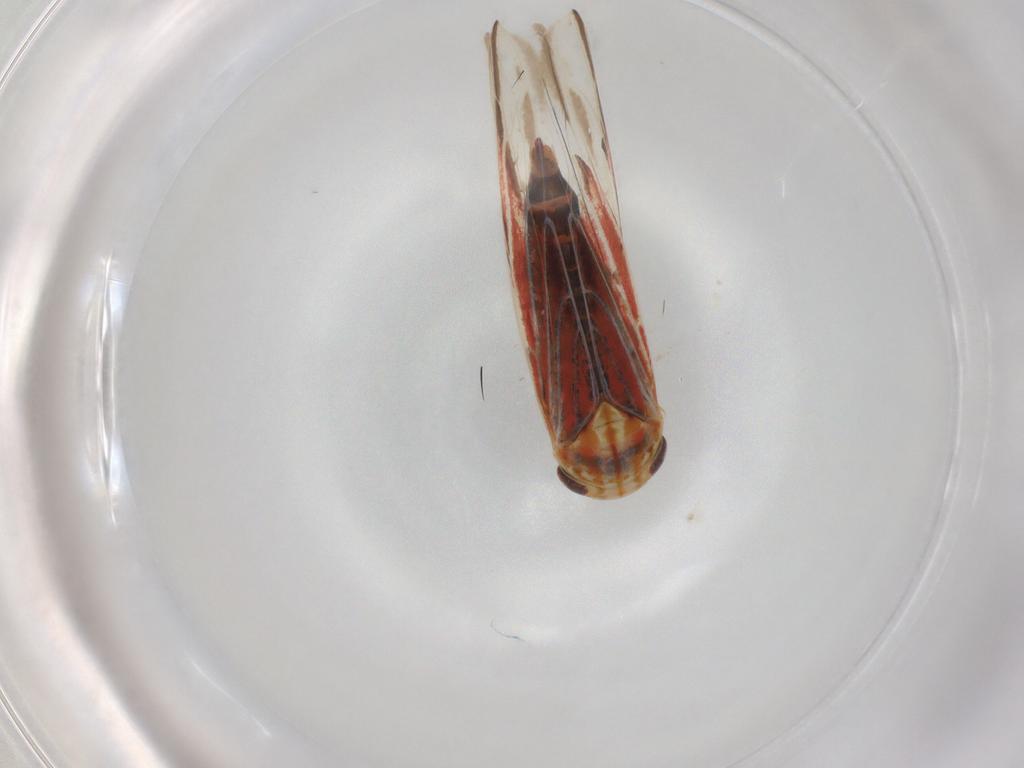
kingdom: Animalia
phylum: Arthropoda
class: Insecta
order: Hemiptera
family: Cicadellidae
